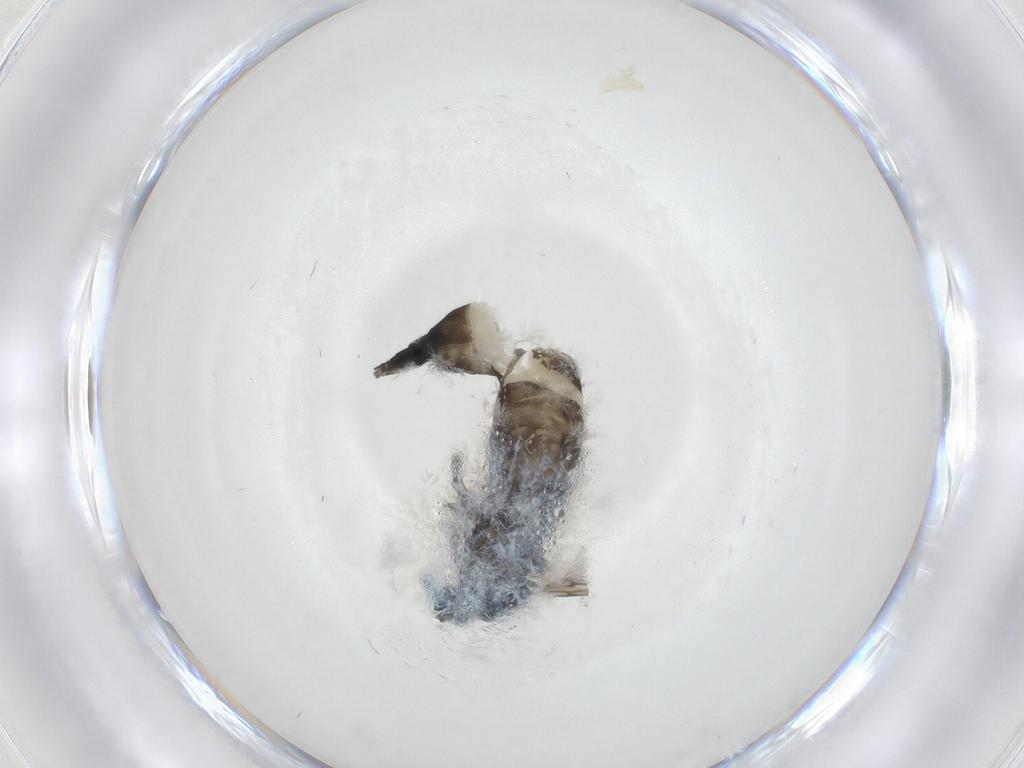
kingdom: Animalia
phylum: Arthropoda
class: Insecta
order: Diptera
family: Sciaridae
